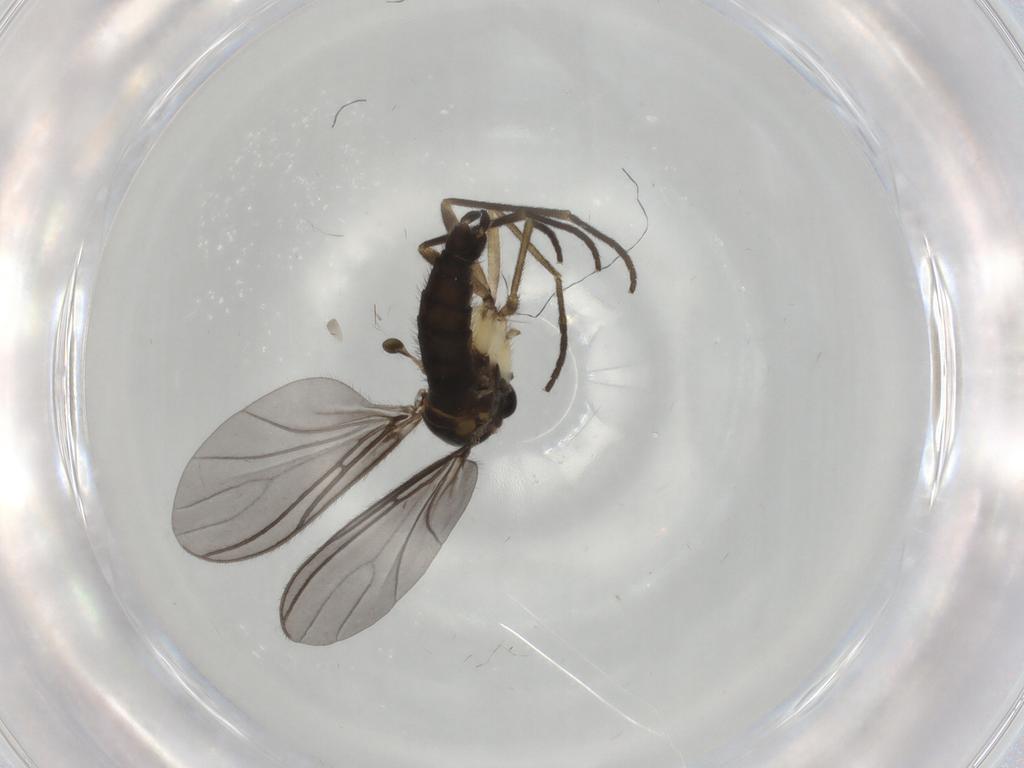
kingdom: Animalia
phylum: Arthropoda
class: Insecta
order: Diptera
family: Sciaridae
